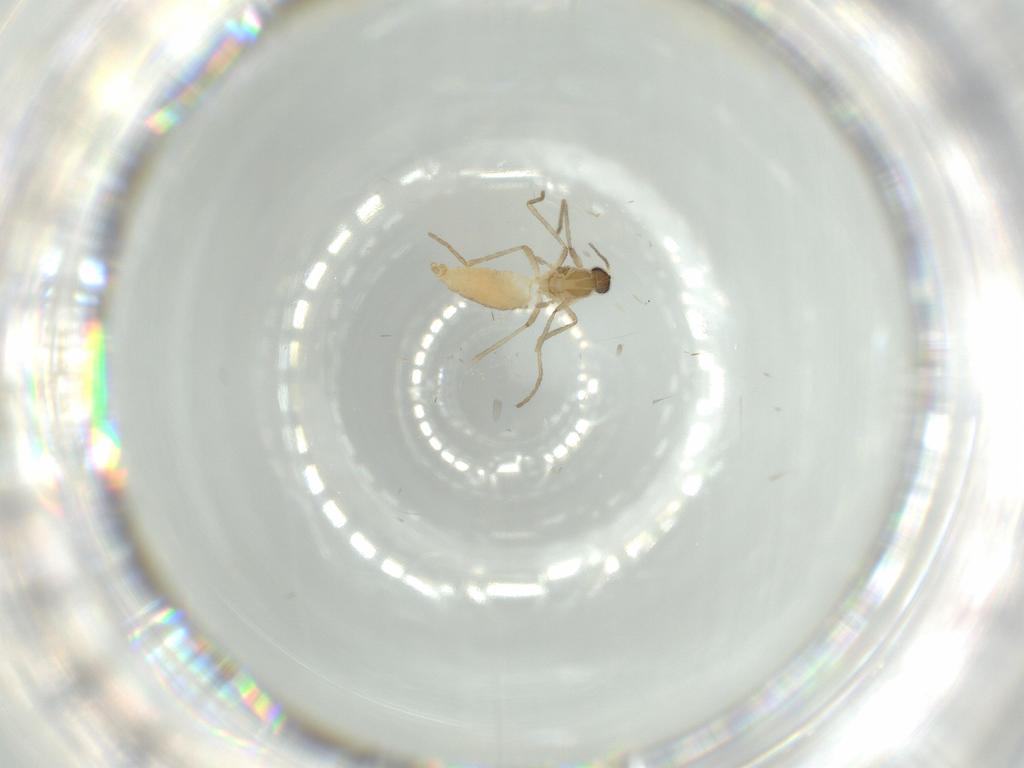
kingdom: Animalia
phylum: Arthropoda
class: Insecta
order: Diptera
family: Cecidomyiidae
